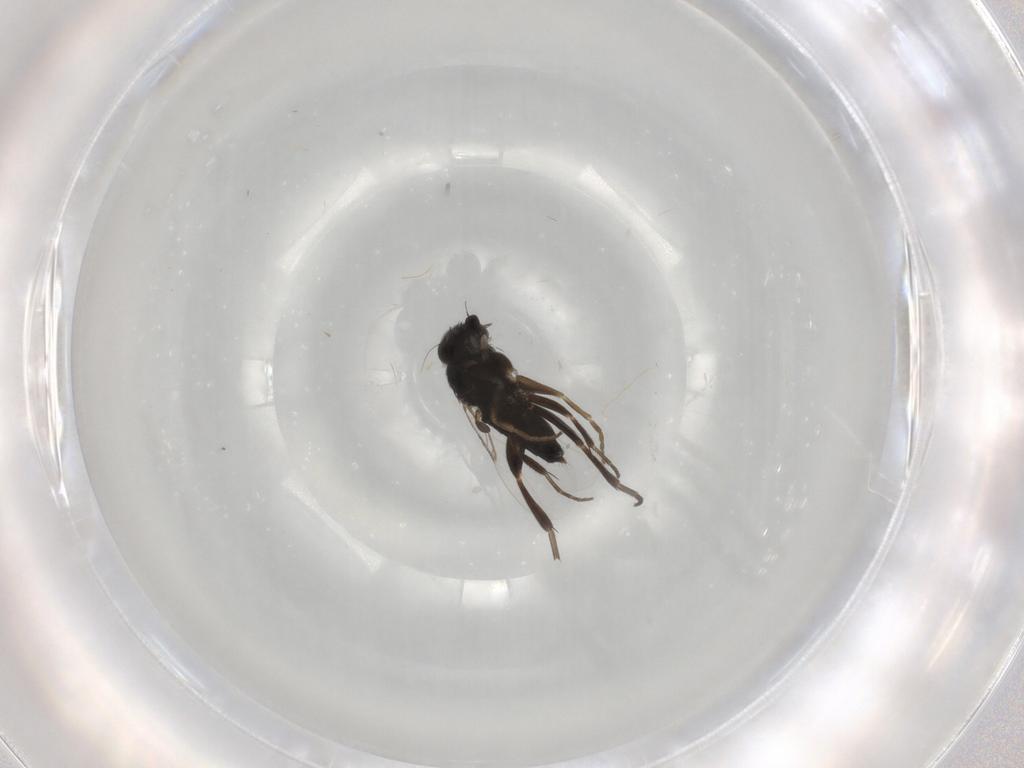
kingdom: Animalia
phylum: Arthropoda
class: Insecta
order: Diptera
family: Phoridae
